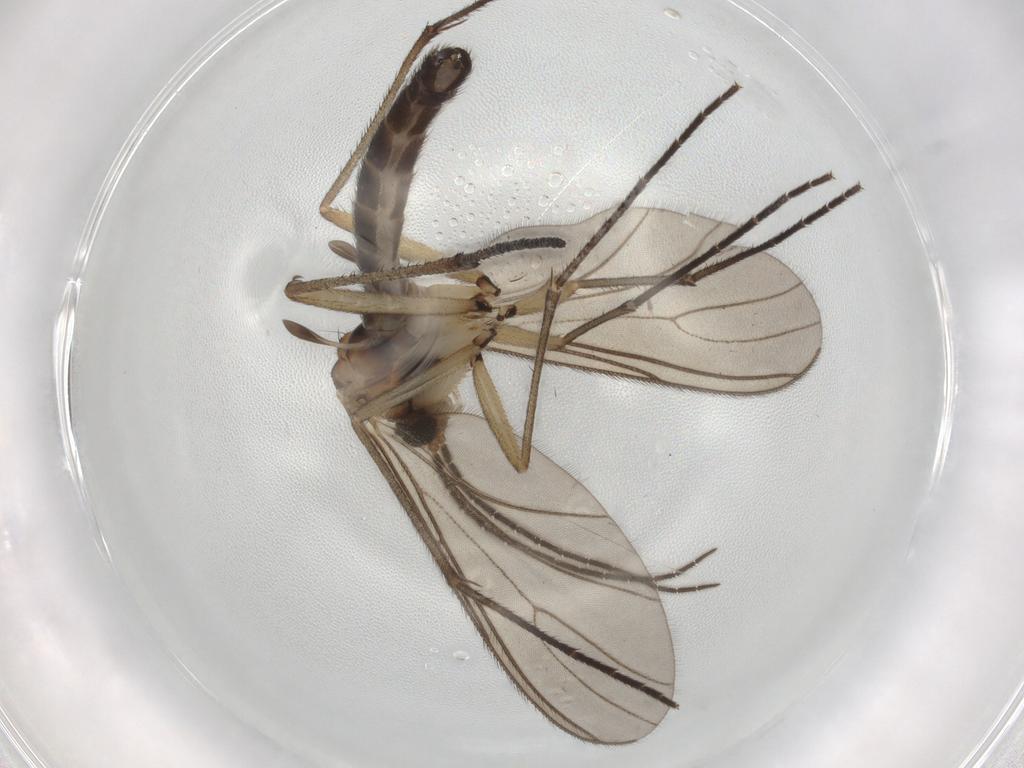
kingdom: Animalia
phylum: Arthropoda
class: Insecta
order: Diptera
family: Sciaridae
